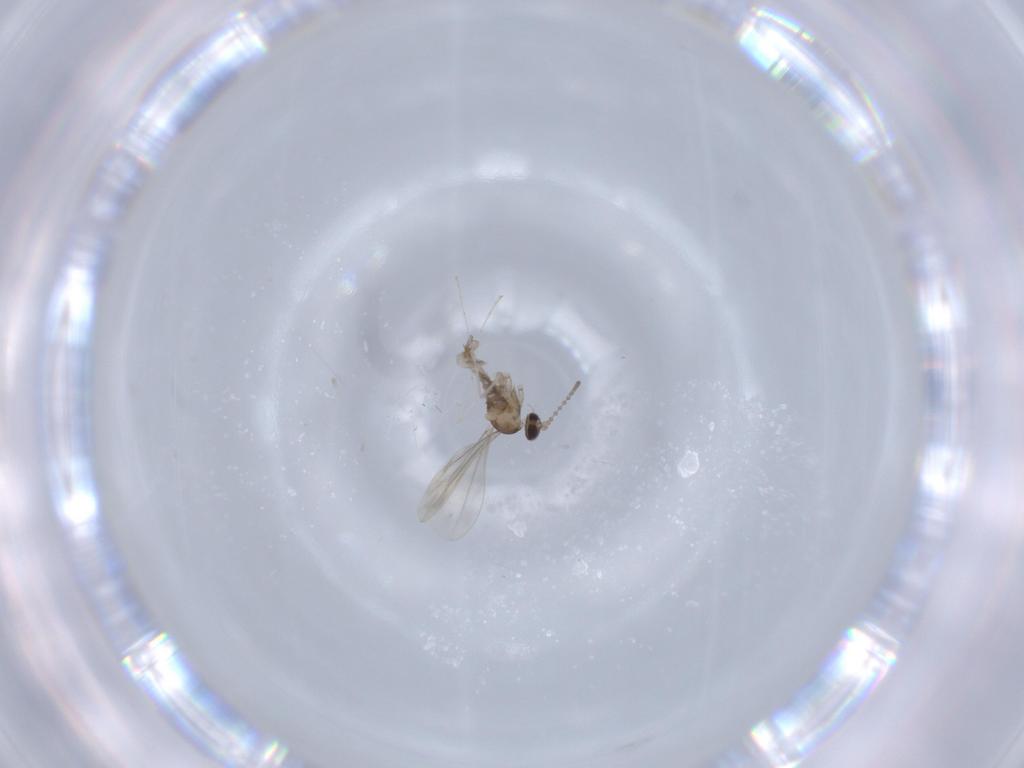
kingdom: Animalia
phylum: Arthropoda
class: Insecta
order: Diptera
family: Cecidomyiidae
